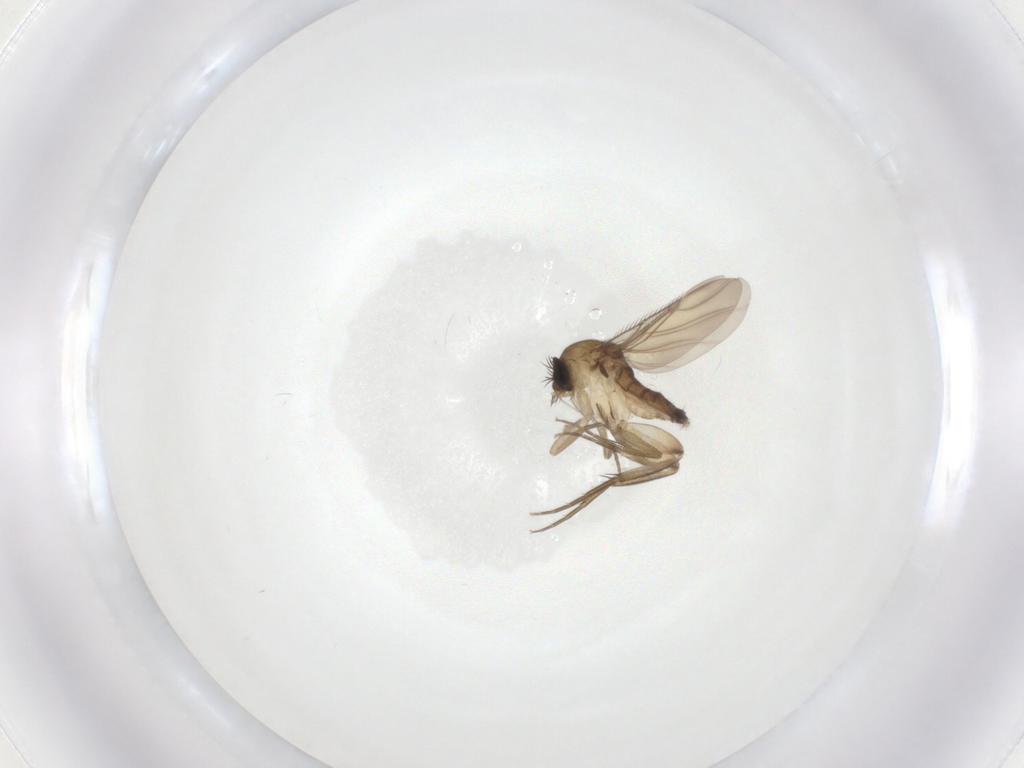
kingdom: Animalia
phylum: Arthropoda
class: Insecta
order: Diptera
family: Phoridae
